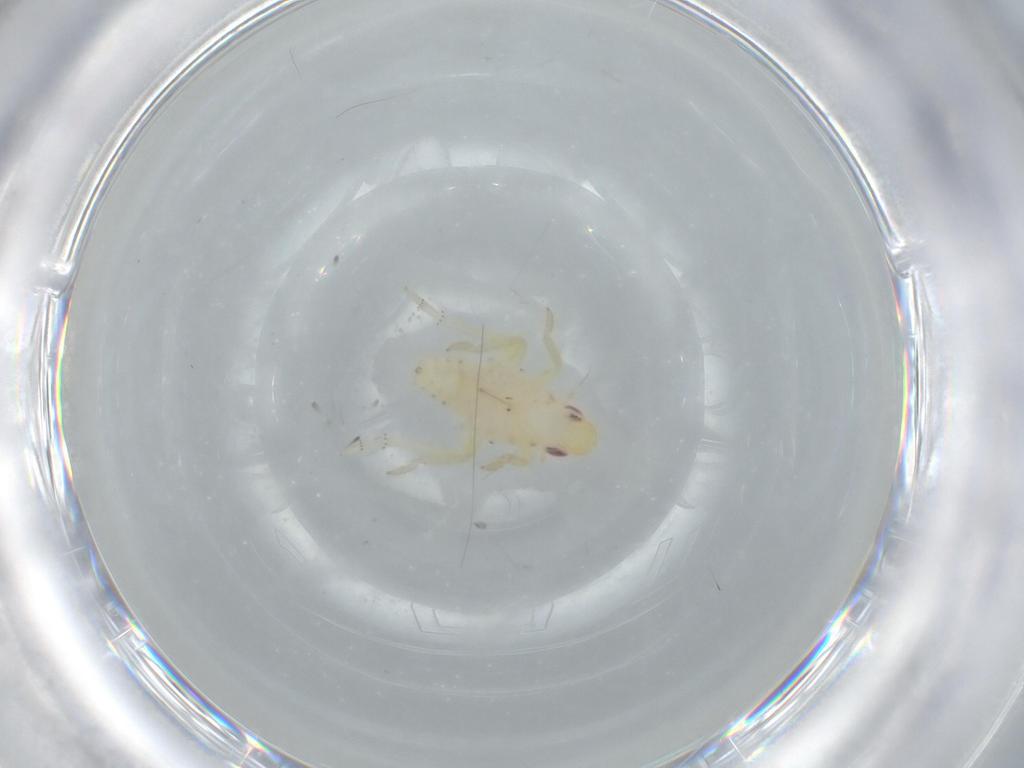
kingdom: Animalia
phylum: Arthropoda
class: Insecta
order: Hemiptera
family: Tropiduchidae
